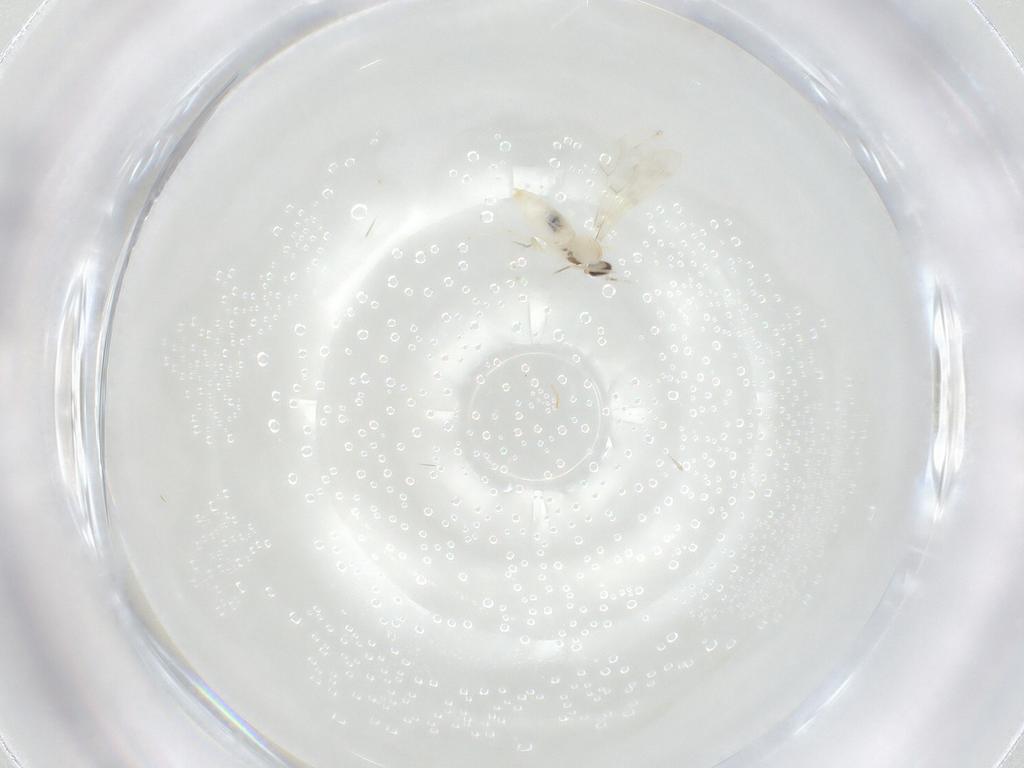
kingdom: Animalia
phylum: Arthropoda
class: Insecta
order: Diptera
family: Cecidomyiidae
